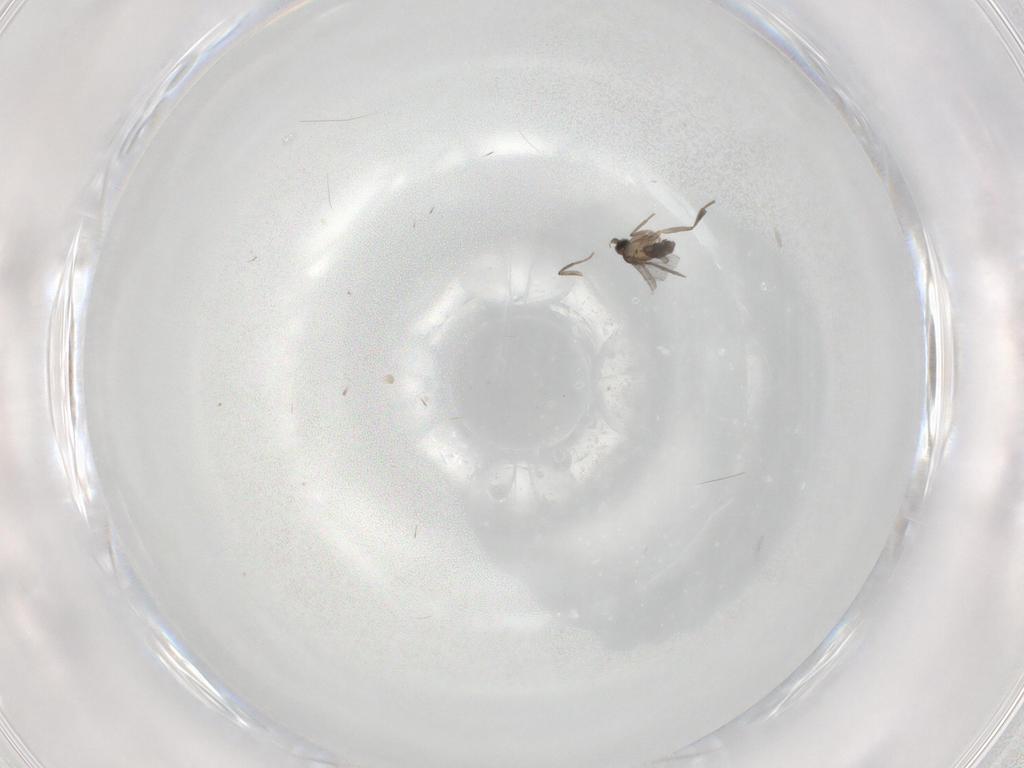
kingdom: Animalia
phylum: Arthropoda
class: Insecta
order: Diptera
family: Phoridae
